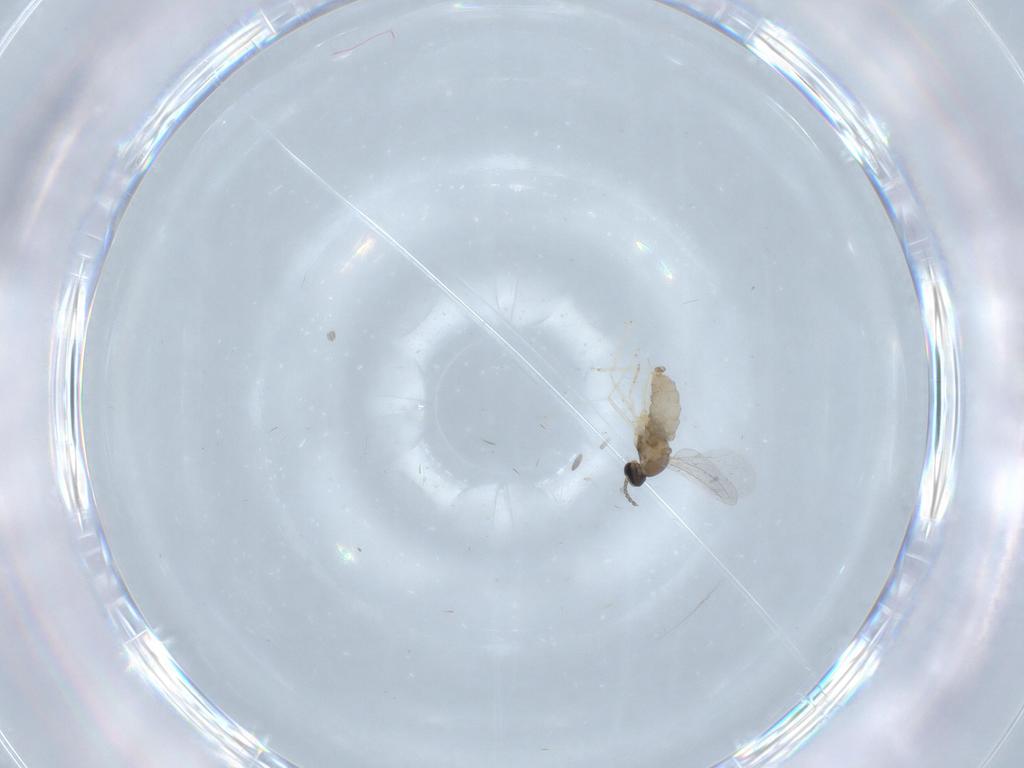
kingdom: Animalia
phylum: Arthropoda
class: Insecta
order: Diptera
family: Cecidomyiidae
